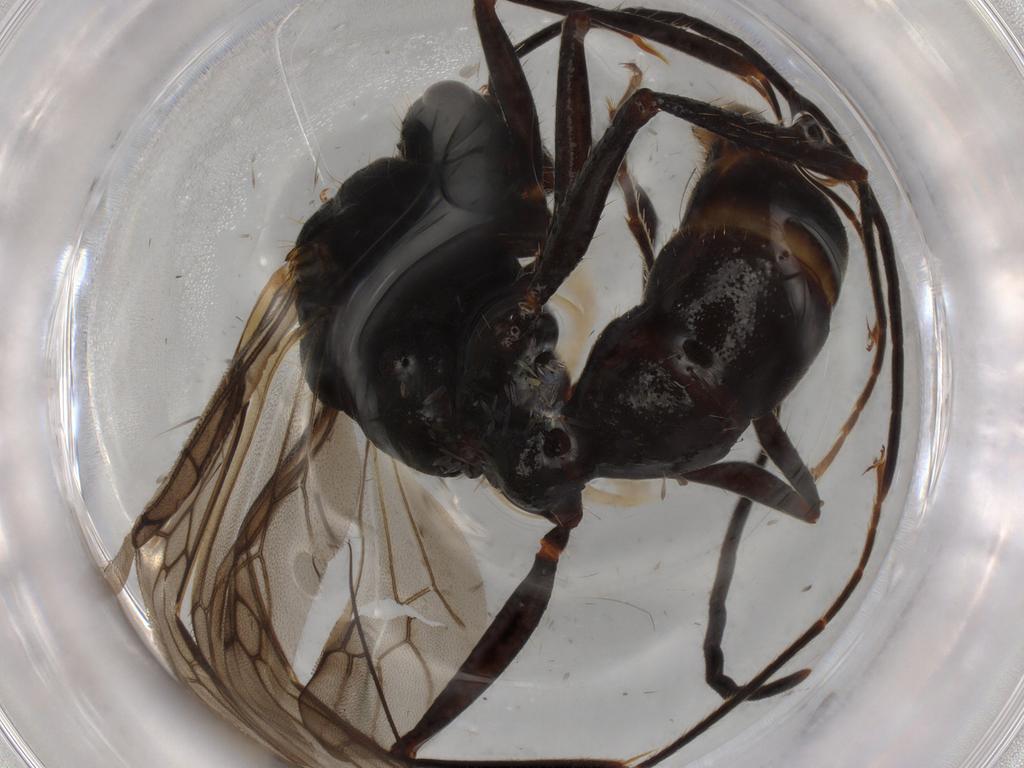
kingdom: Animalia
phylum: Arthropoda
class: Insecta
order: Hymenoptera
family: Formicidae
